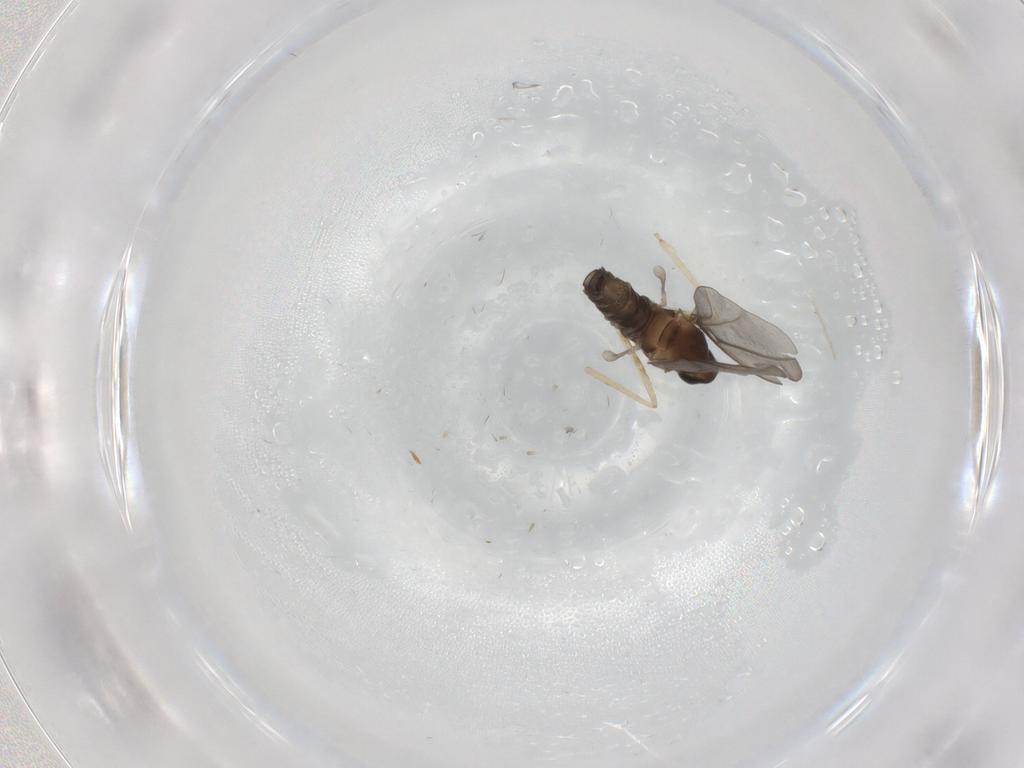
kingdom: Animalia
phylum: Arthropoda
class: Insecta
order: Diptera
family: Cecidomyiidae
